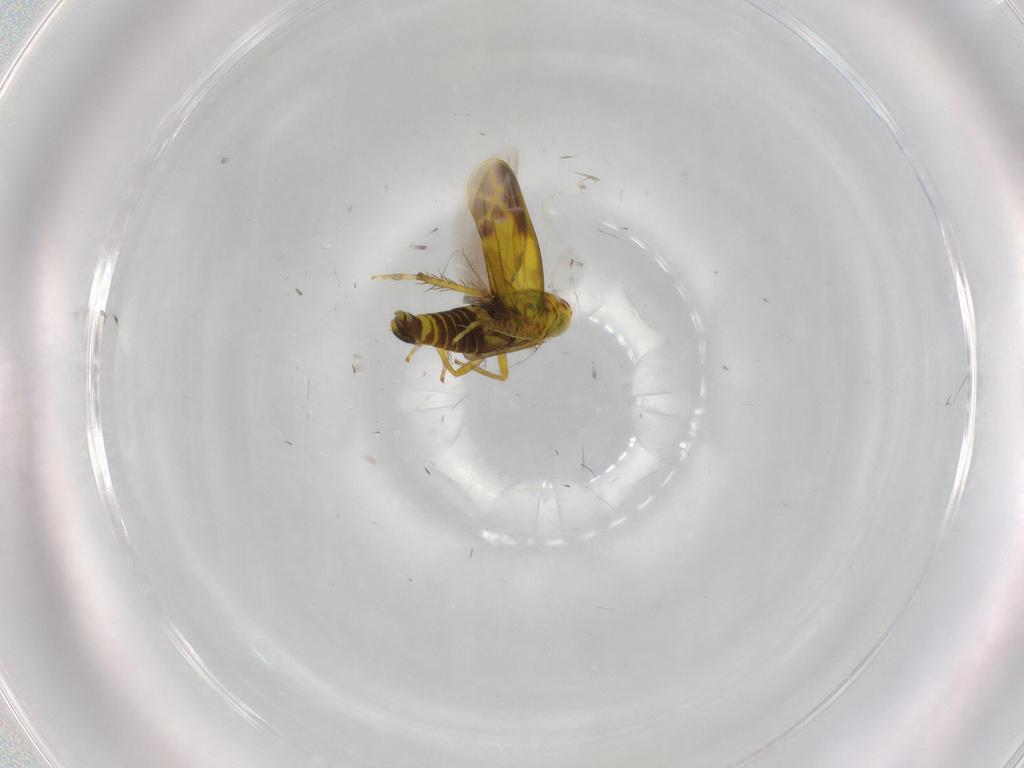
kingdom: Animalia
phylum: Arthropoda
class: Insecta
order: Hemiptera
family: Cicadellidae
